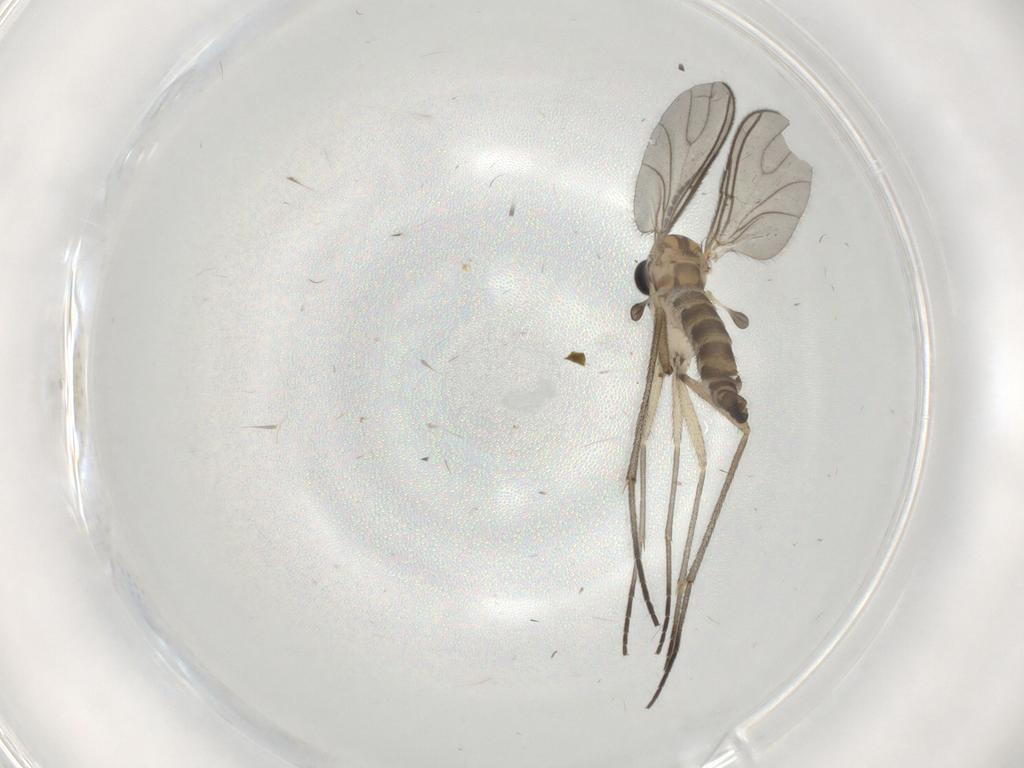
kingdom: Animalia
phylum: Arthropoda
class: Insecta
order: Diptera
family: Sciaridae
